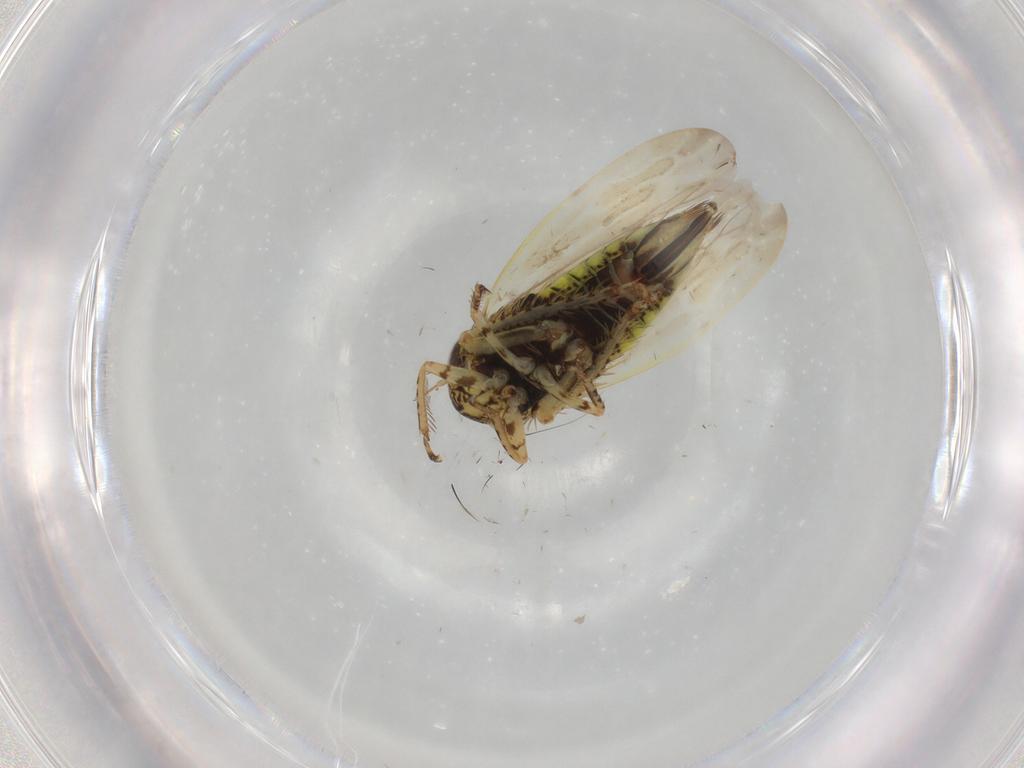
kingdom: Animalia
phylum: Arthropoda
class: Insecta
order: Hemiptera
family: Cicadellidae
